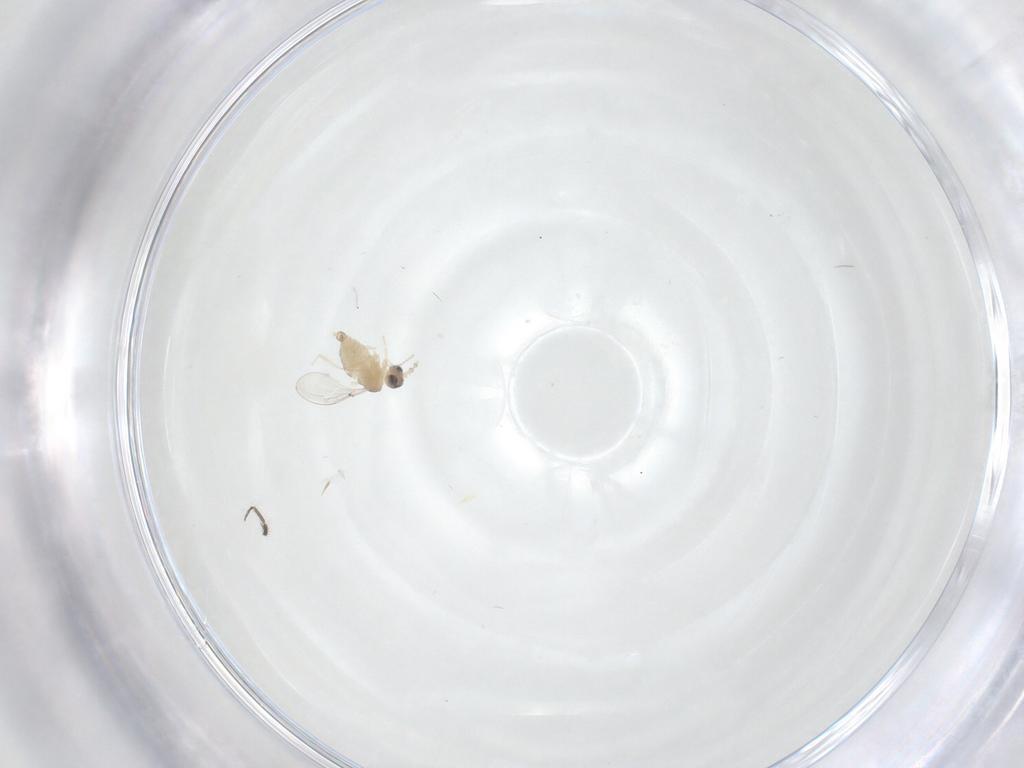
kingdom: Animalia
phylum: Arthropoda
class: Insecta
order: Diptera
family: Cecidomyiidae
